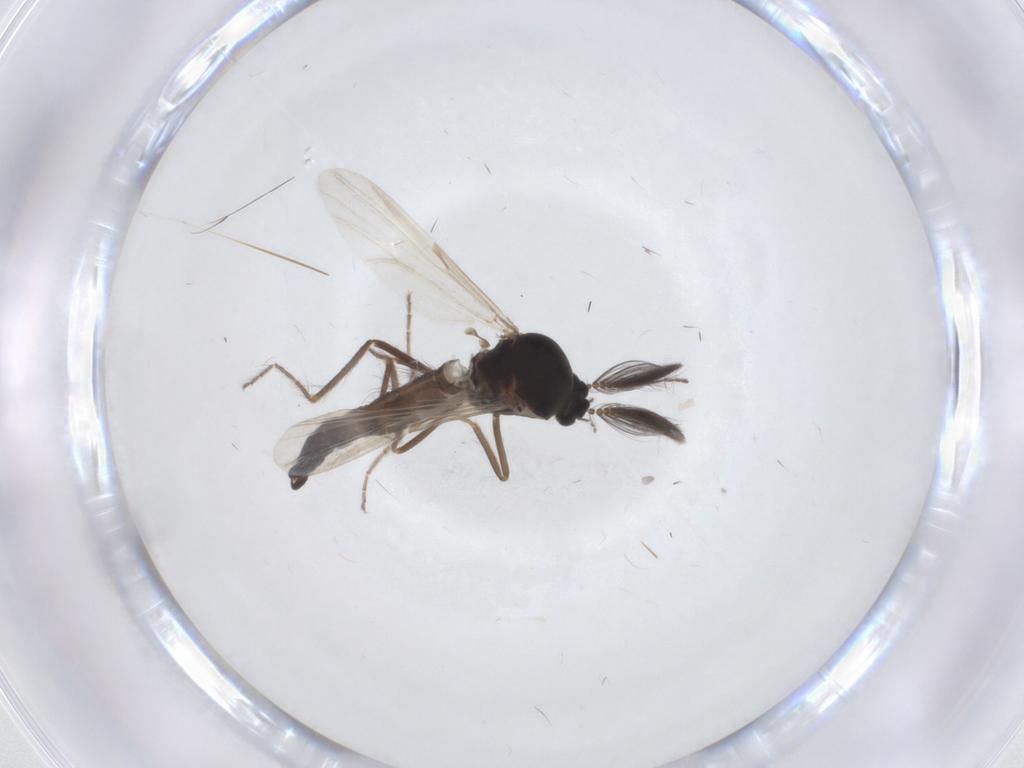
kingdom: Animalia
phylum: Arthropoda
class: Insecta
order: Diptera
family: Ceratopogonidae
